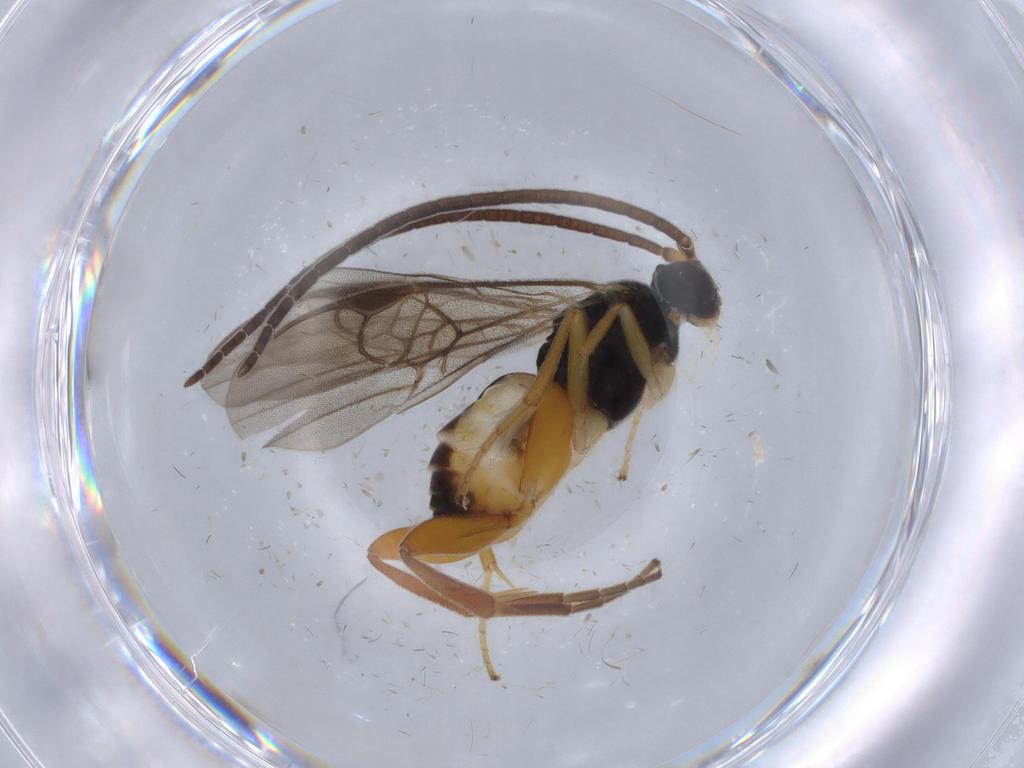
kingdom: Animalia
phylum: Arthropoda
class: Insecta
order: Hymenoptera
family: Braconidae
